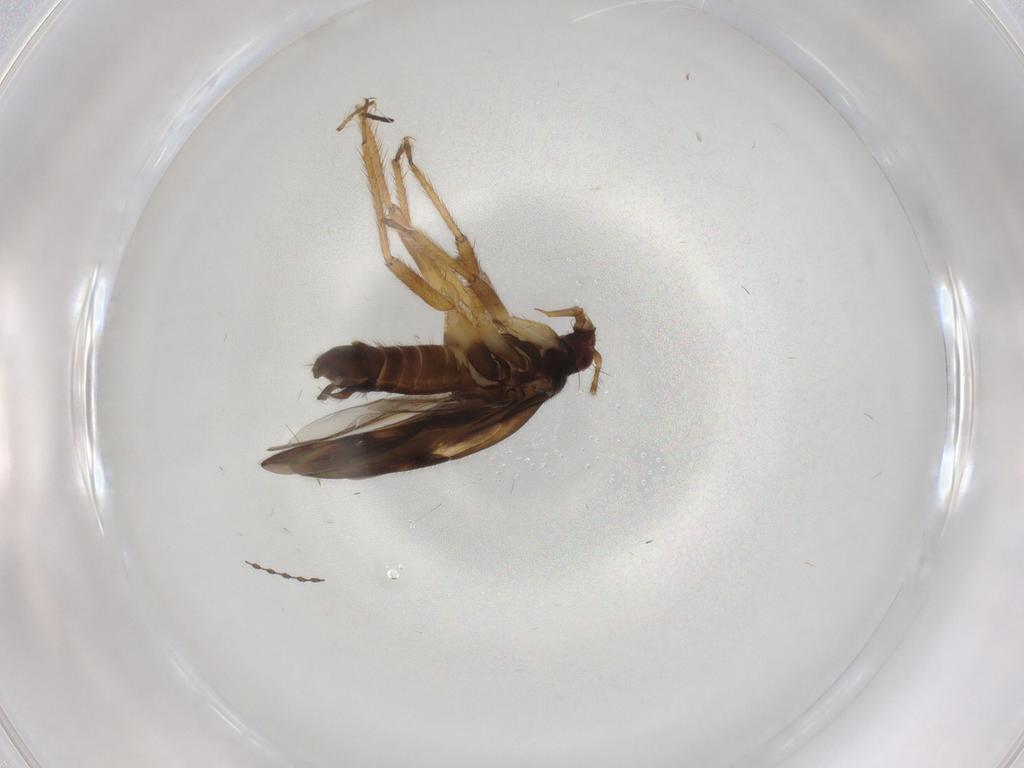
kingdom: Animalia
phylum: Arthropoda
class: Insecta
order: Hemiptera
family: Ceratocombidae
